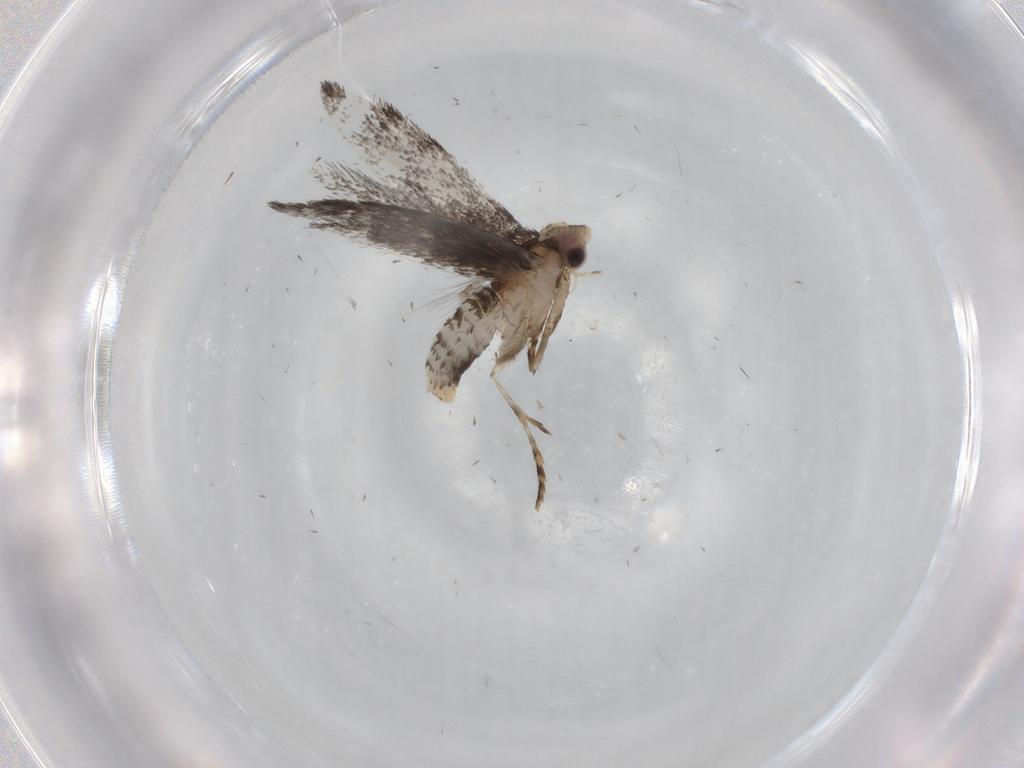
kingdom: Animalia
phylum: Arthropoda
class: Insecta
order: Lepidoptera
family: Tineidae
